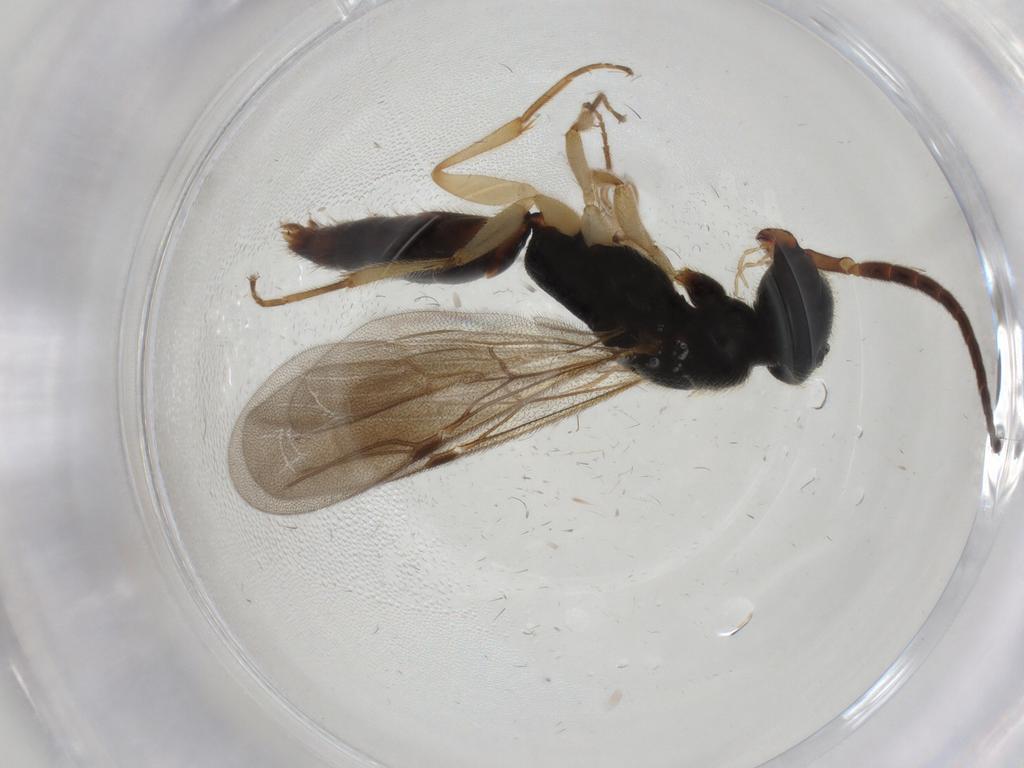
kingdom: Animalia
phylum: Arthropoda
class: Insecta
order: Hymenoptera
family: Bethylidae
